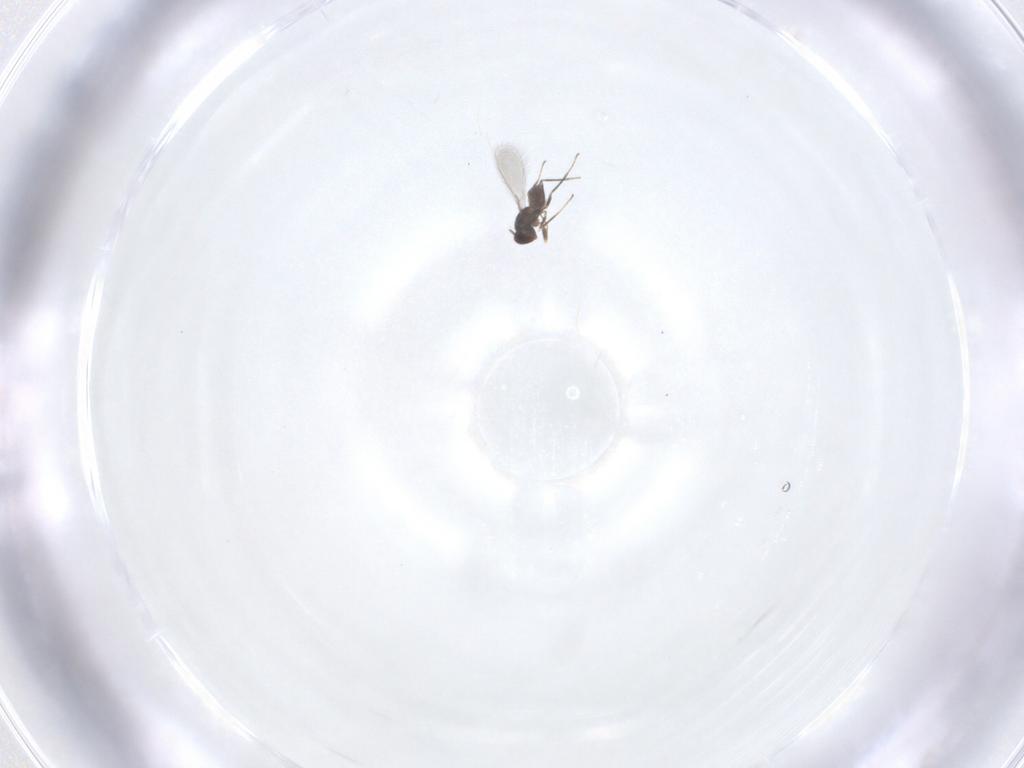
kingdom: Animalia
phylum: Arthropoda
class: Insecta
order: Hymenoptera
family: Mymaridae
